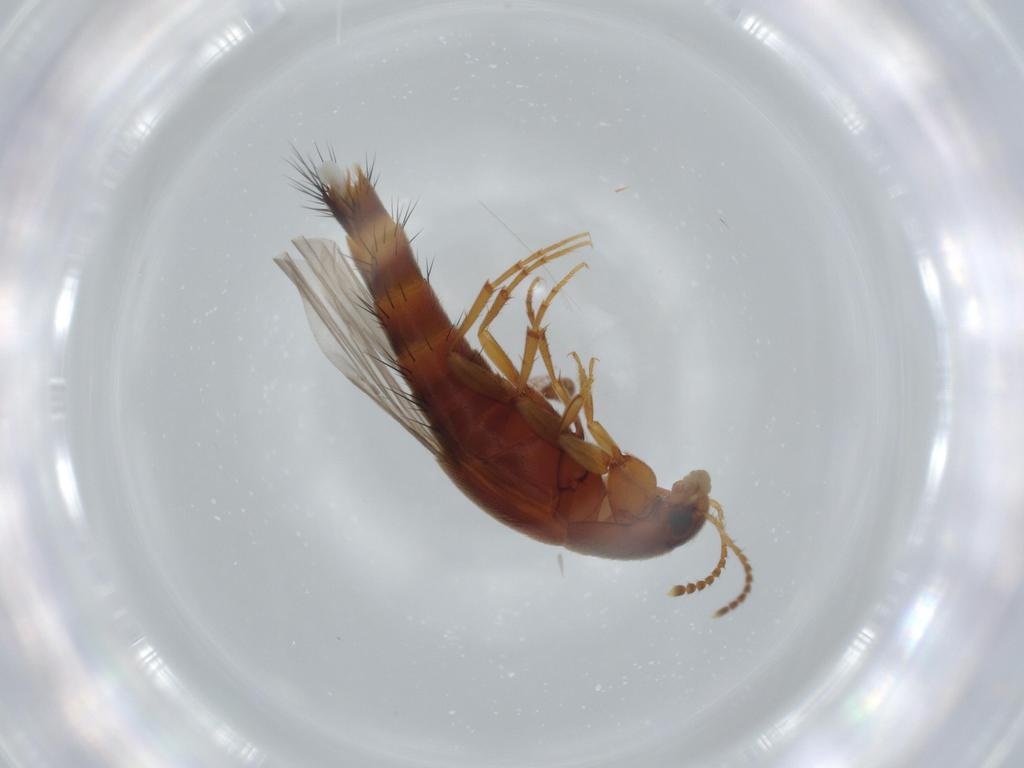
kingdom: Animalia
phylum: Arthropoda
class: Insecta
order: Coleoptera
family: Staphylinidae
